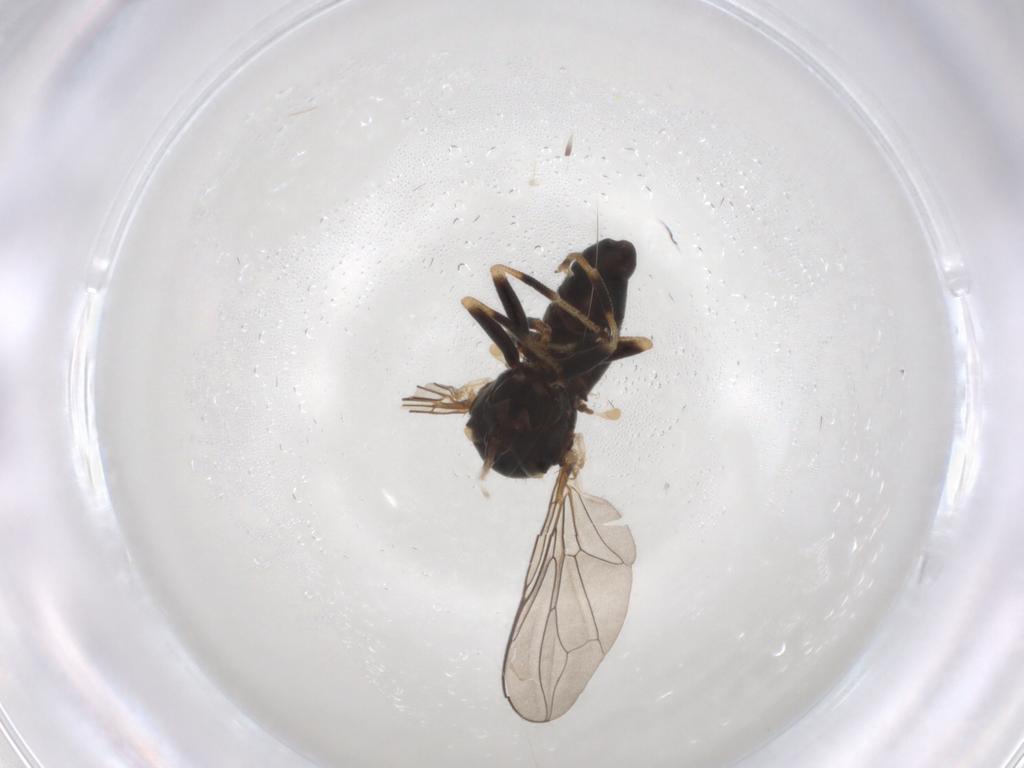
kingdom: Animalia
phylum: Arthropoda
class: Insecta
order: Diptera
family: Pipunculidae
